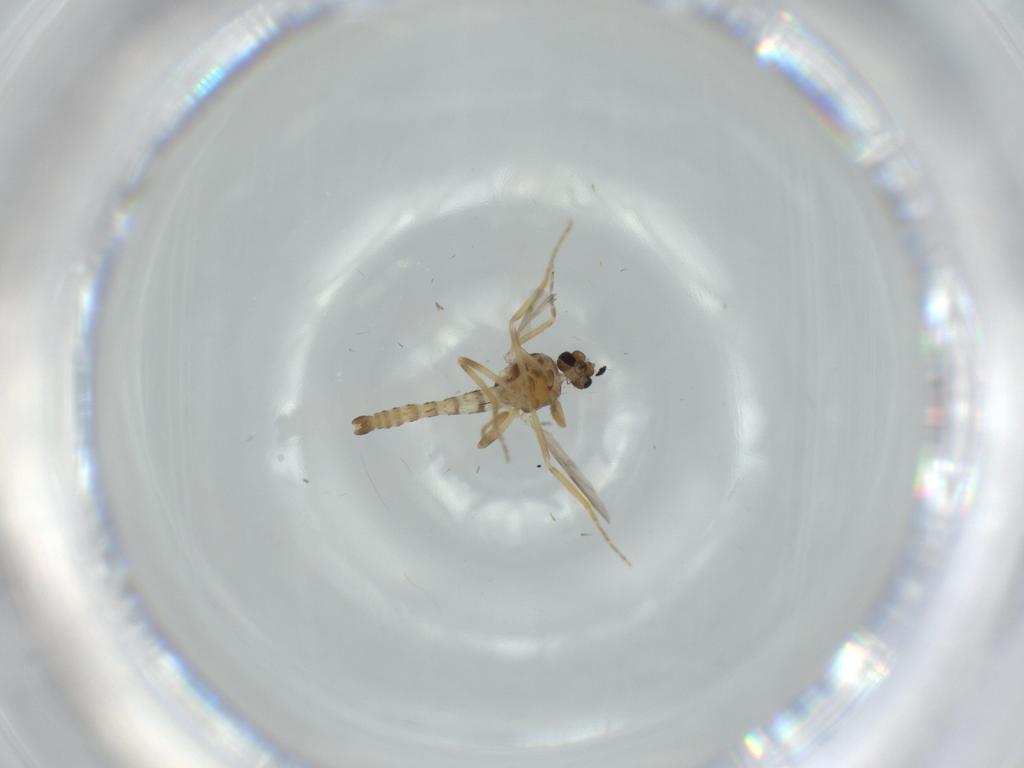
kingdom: Animalia
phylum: Arthropoda
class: Insecta
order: Diptera
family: Ceratopogonidae
